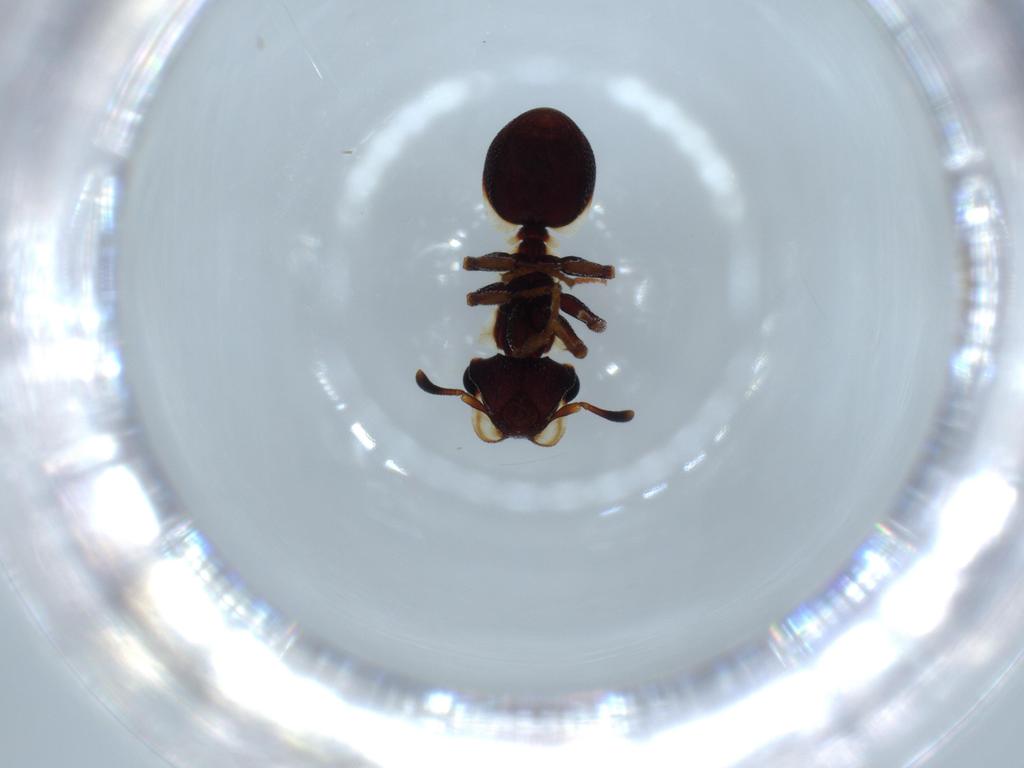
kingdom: Animalia
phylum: Arthropoda
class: Insecta
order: Hymenoptera
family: Formicidae
